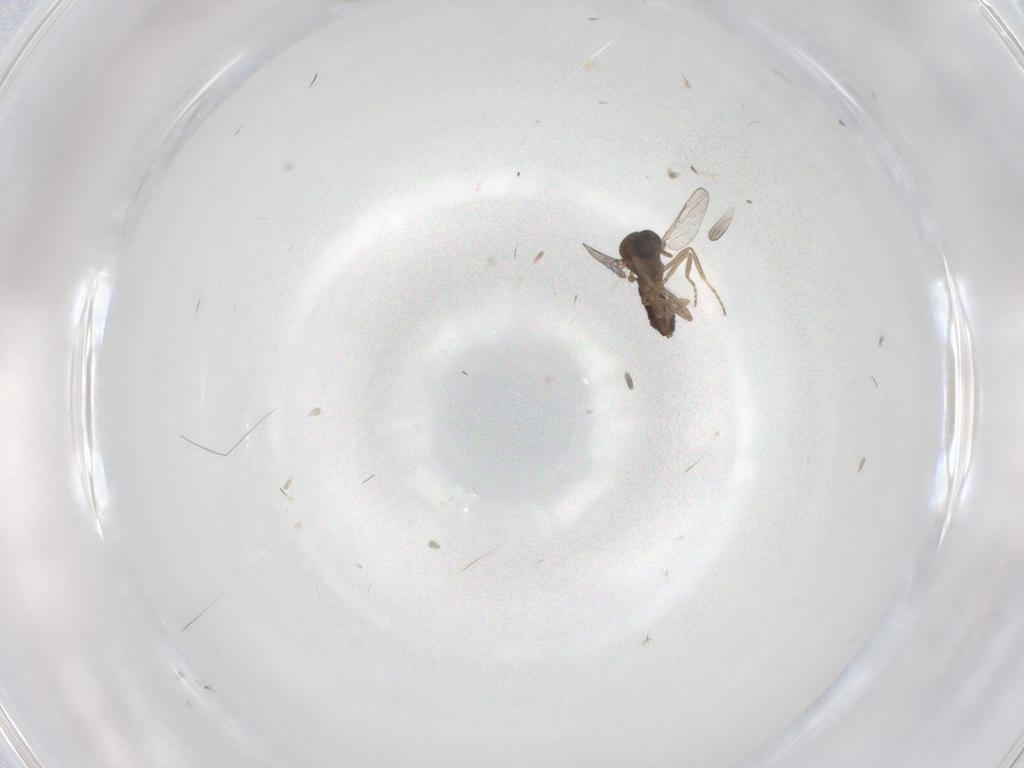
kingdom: Animalia
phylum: Arthropoda
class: Insecta
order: Diptera
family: Ceratopogonidae
